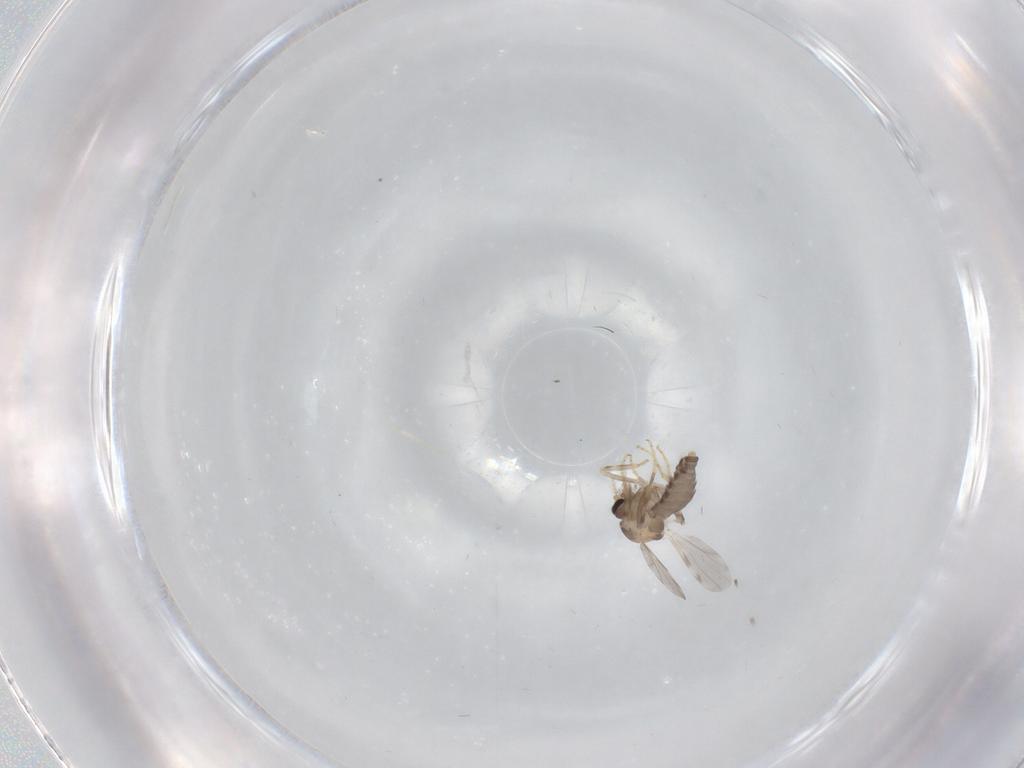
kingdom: Animalia
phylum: Arthropoda
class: Insecta
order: Diptera
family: Ceratopogonidae
